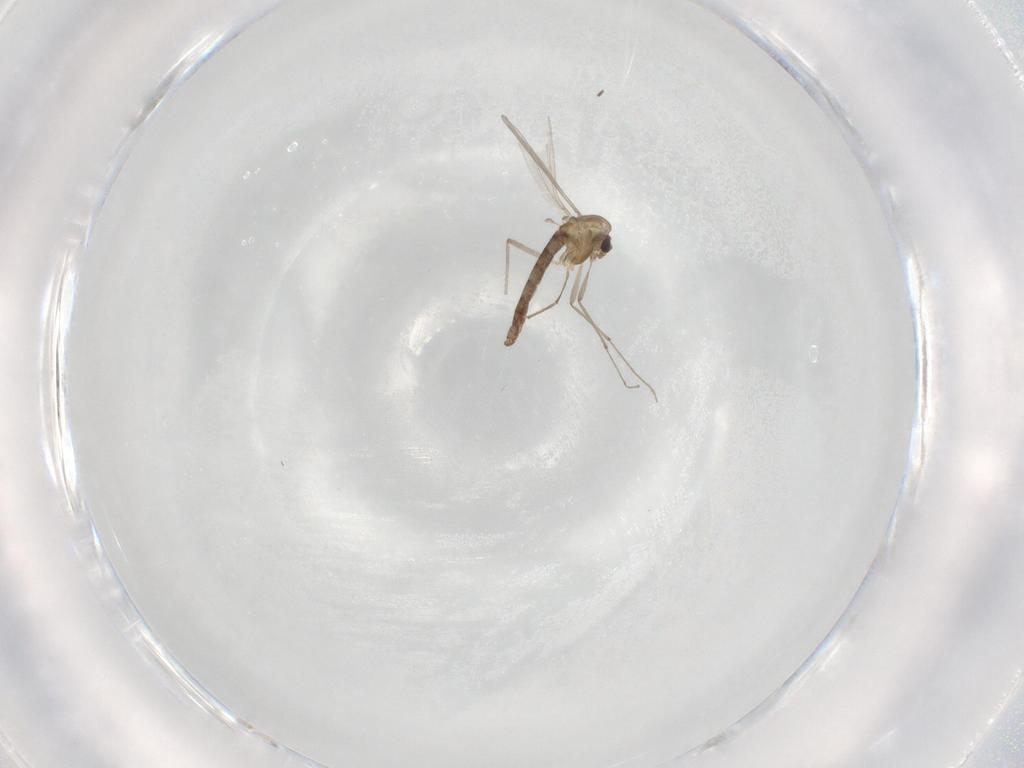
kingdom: Animalia
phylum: Arthropoda
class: Insecta
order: Diptera
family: Chironomidae
